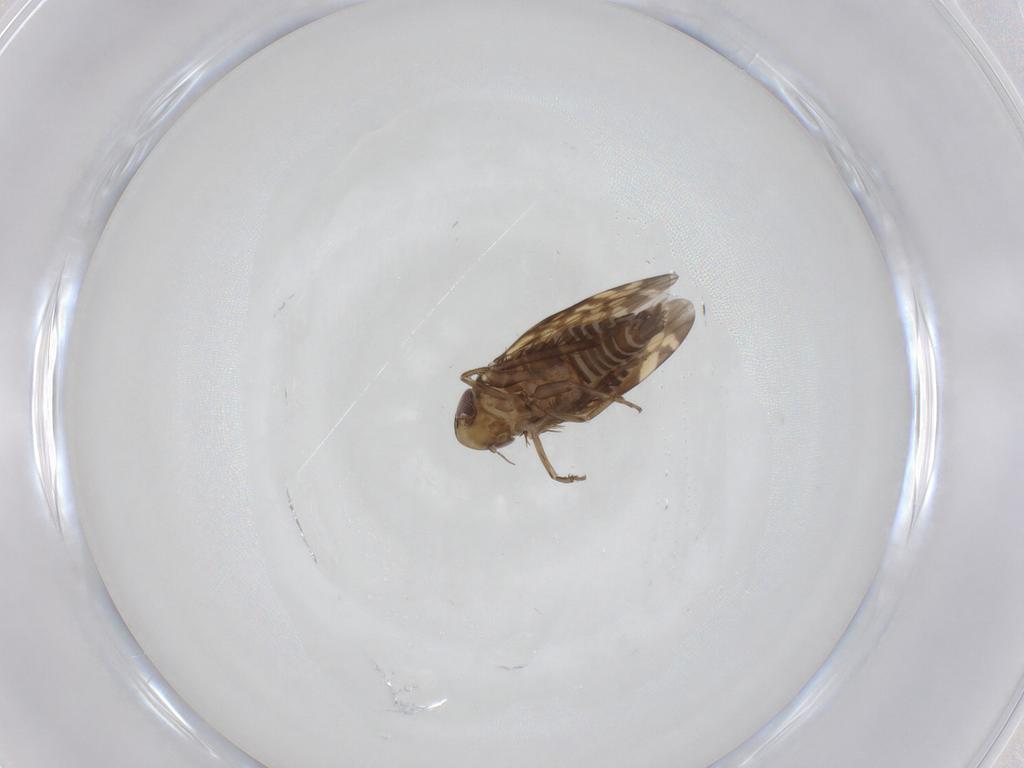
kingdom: Animalia
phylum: Arthropoda
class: Insecta
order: Hemiptera
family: Cicadellidae
